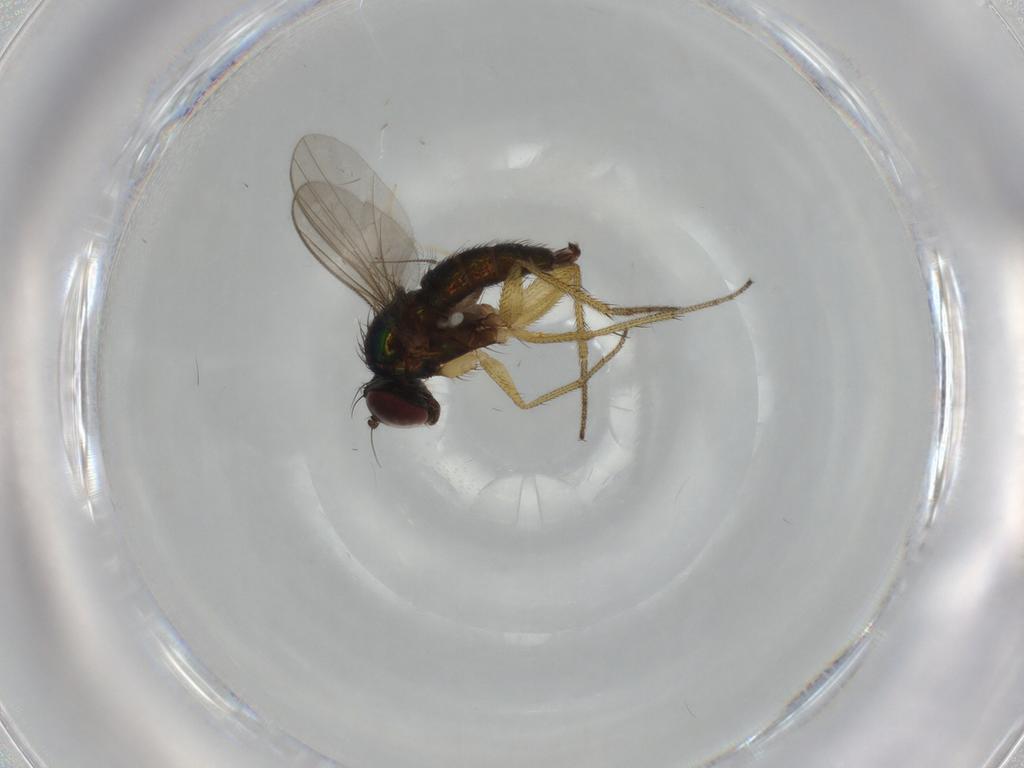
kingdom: Animalia
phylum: Arthropoda
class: Insecta
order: Diptera
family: Dolichopodidae
